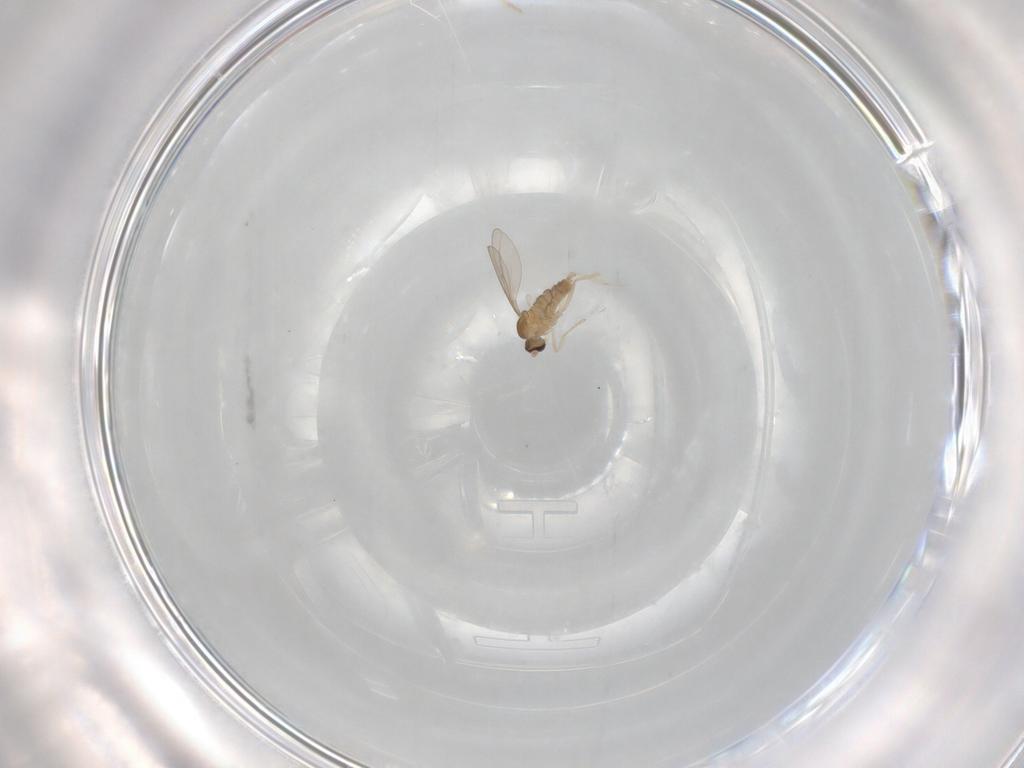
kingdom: Animalia
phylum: Arthropoda
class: Insecta
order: Diptera
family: Cecidomyiidae
